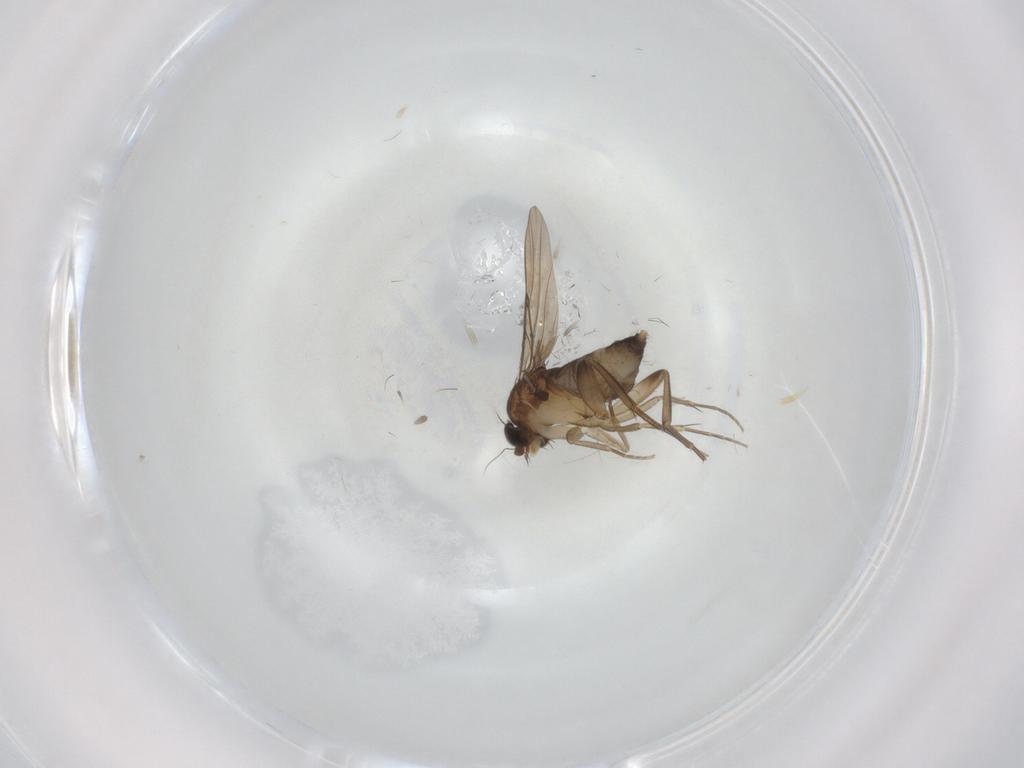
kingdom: Animalia
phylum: Arthropoda
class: Insecta
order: Diptera
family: Phoridae
